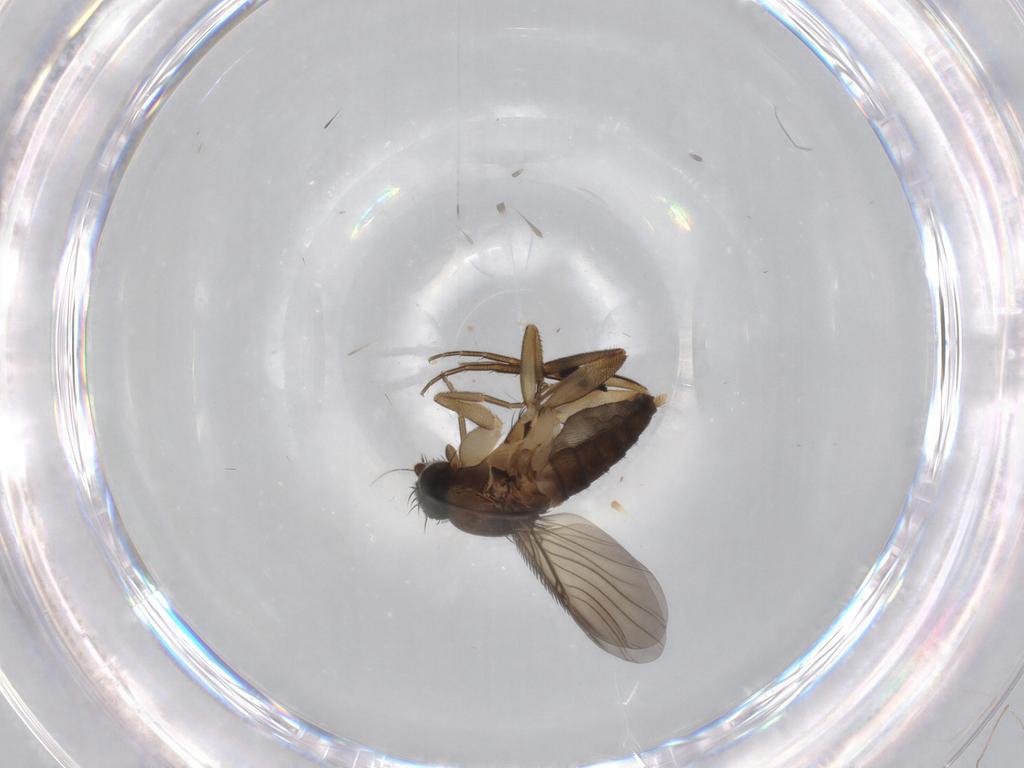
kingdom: Animalia
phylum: Arthropoda
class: Insecta
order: Diptera
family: Phoridae
